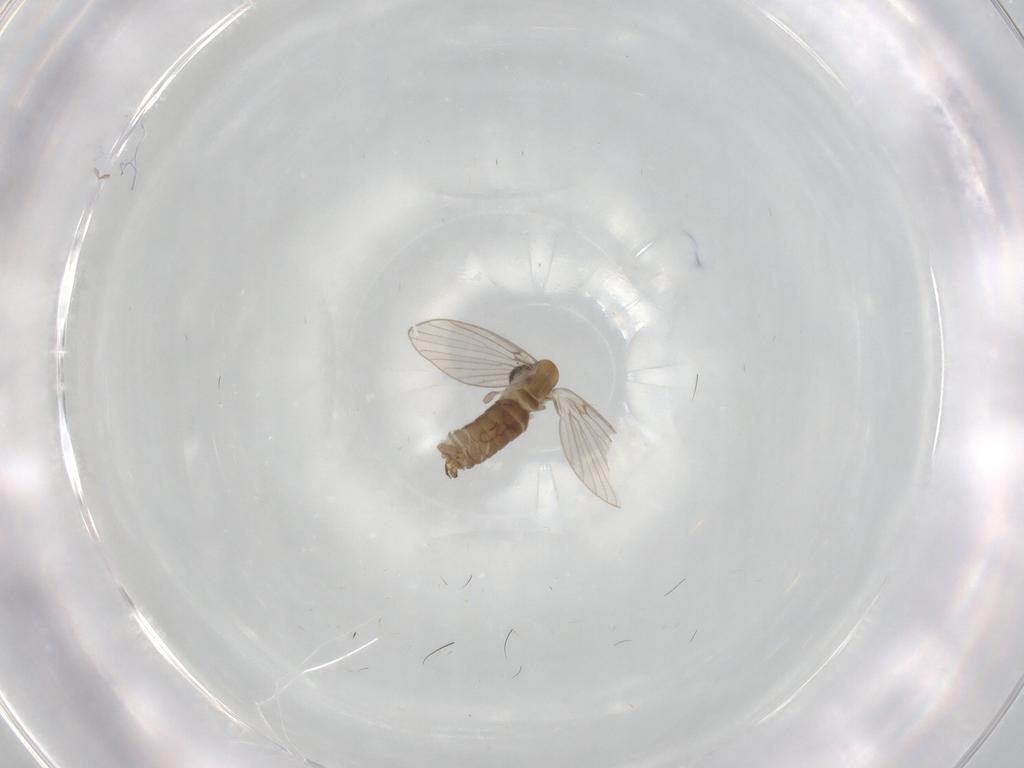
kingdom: Animalia
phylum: Arthropoda
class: Insecta
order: Diptera
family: Psychodidae
